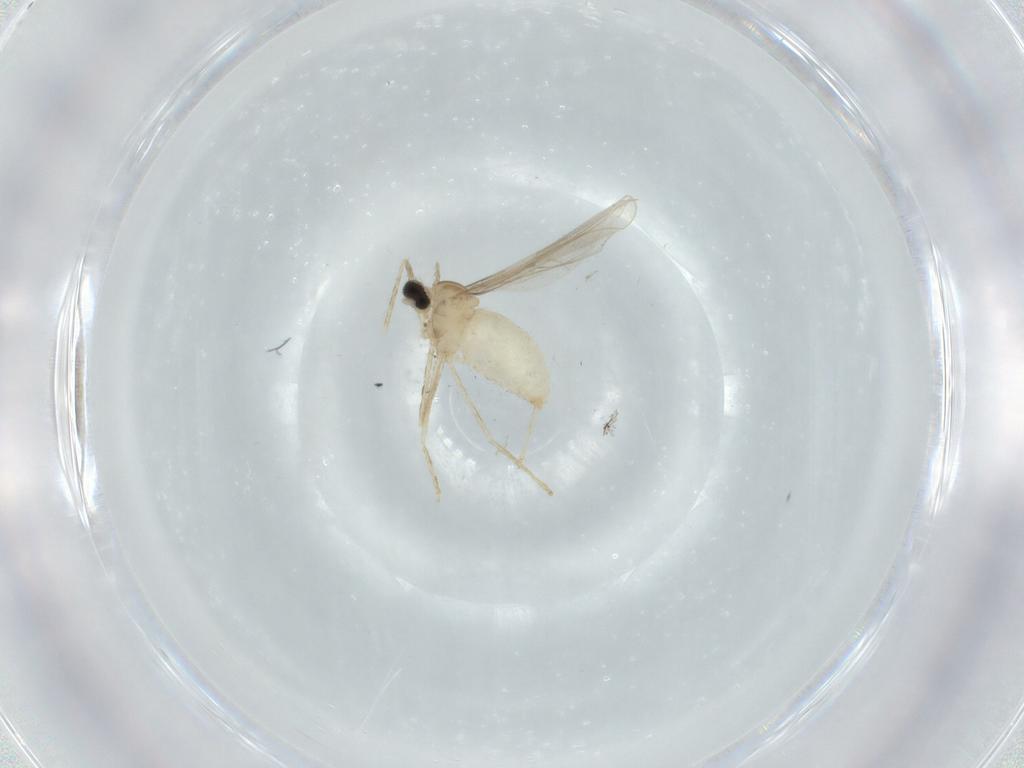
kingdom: Animalia
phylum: Arthropoda
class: Insecta
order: Diptera
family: Cecidomyiidae
